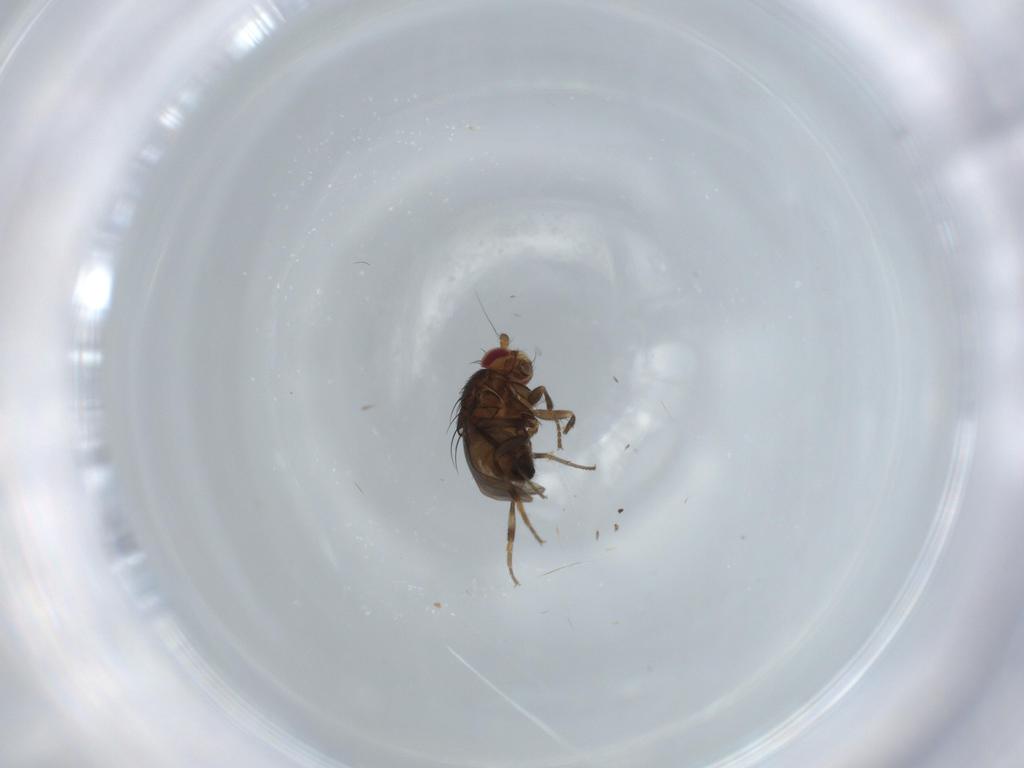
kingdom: Animalia
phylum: Arthropoda
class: Insecta
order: Diptera
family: Sphaeroceridae
